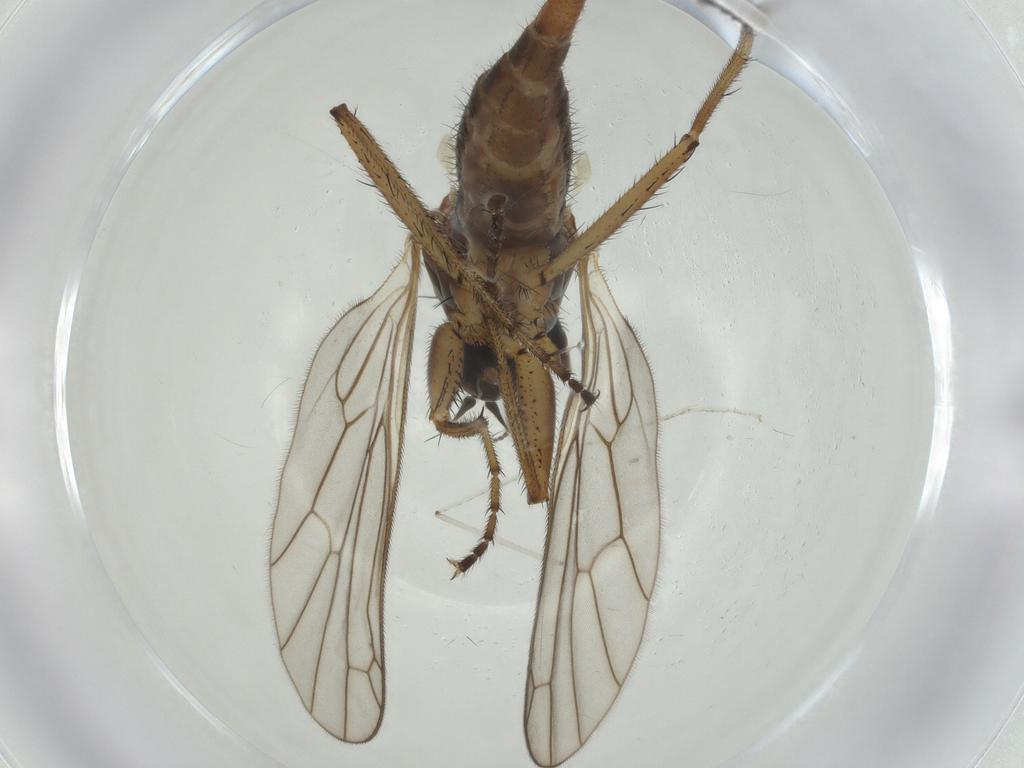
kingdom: Animalia
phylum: Arthropoda
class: Insecta
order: Diptera
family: Empididae
